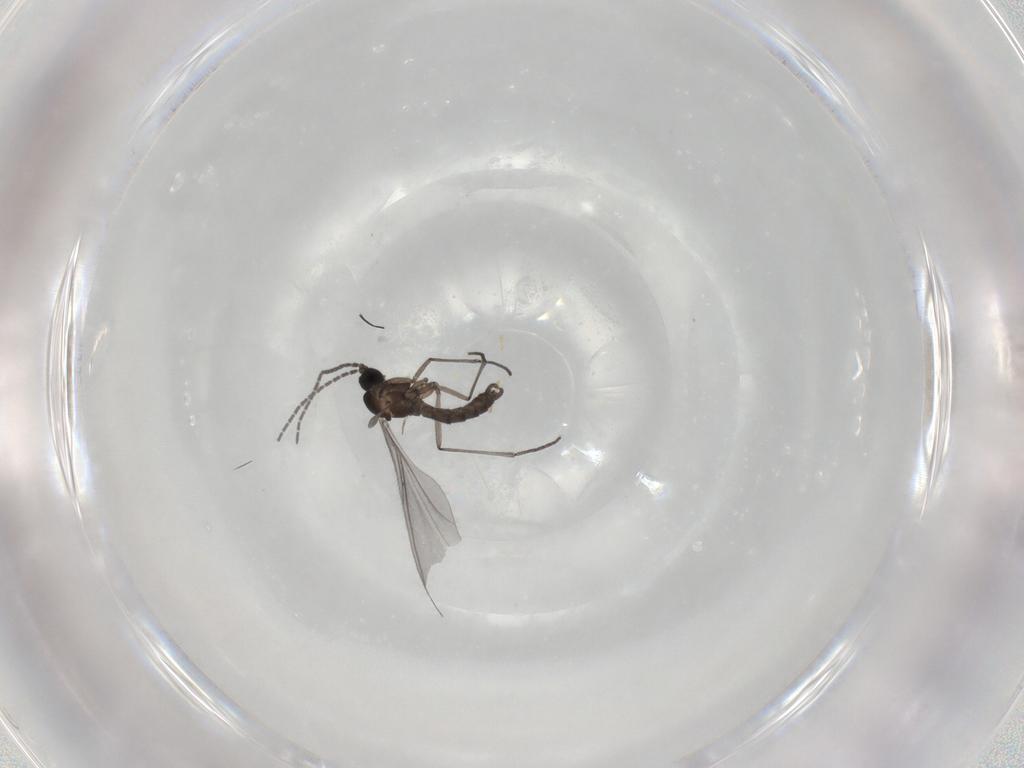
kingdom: Animalia
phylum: Arthropoda
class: Insecta
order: Diptera
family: Sciaridae
